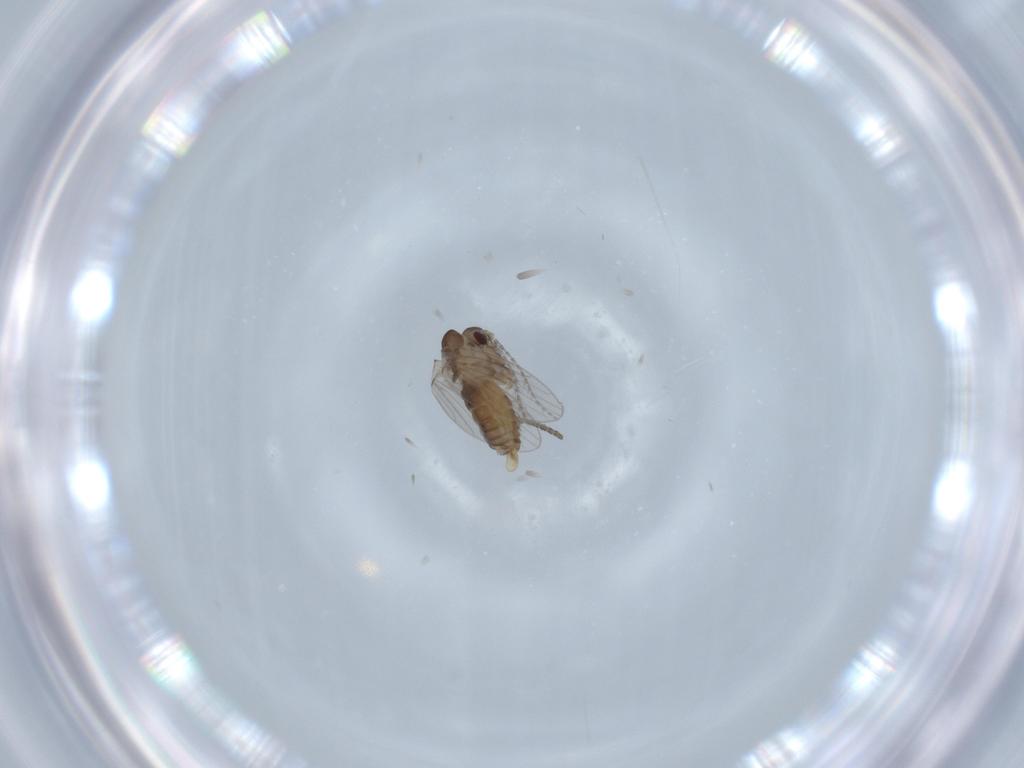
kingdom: Animalia
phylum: Arthropoda
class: Insecta
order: Diptera
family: Psychodidae
